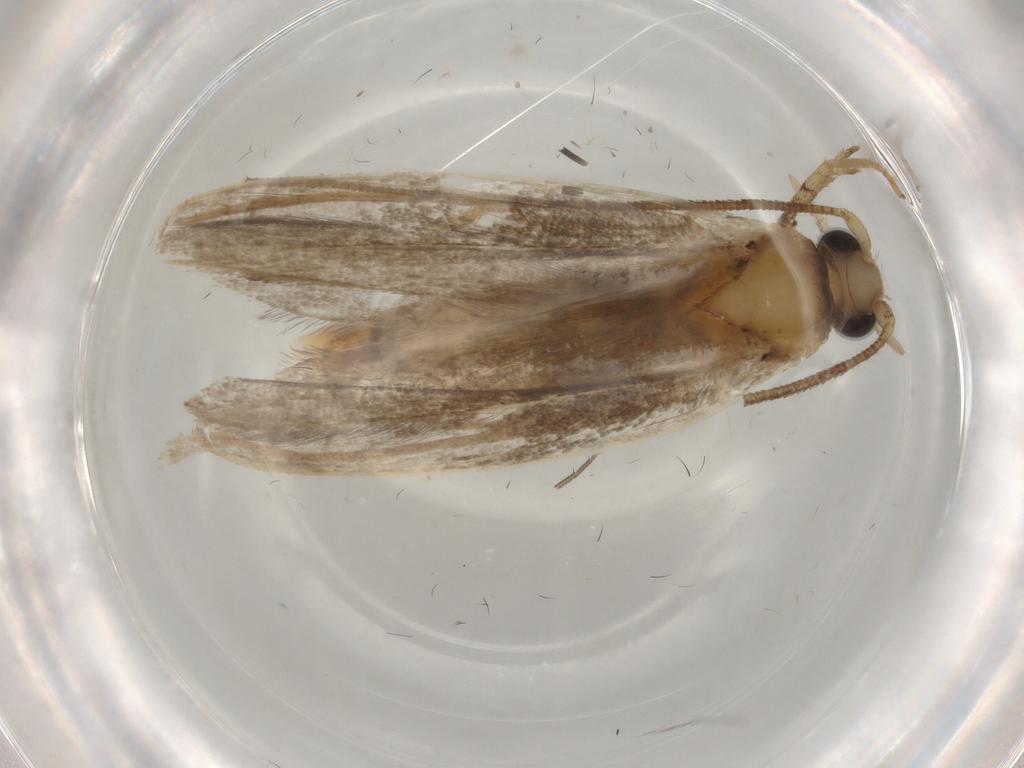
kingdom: Animalia
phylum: Arthropoda
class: Insecta
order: Lepidoptera
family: Yponomeutidae
